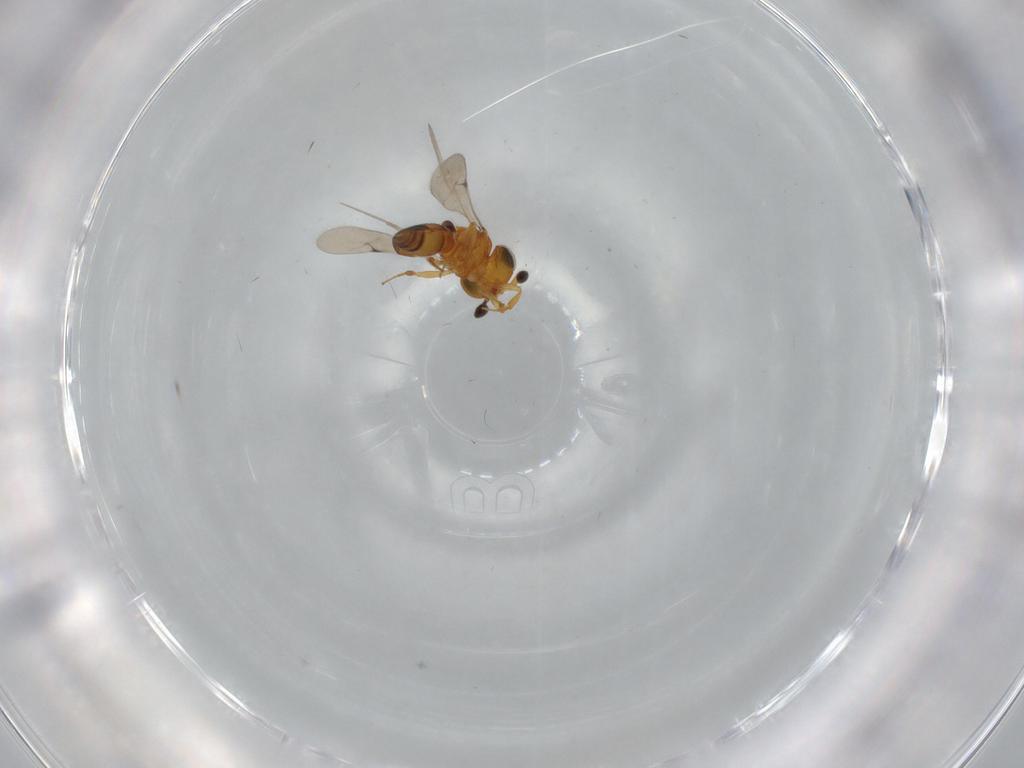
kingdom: Animalia
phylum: Arthropoda
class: Insecta
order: Hymenoptera
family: Scelionidae
